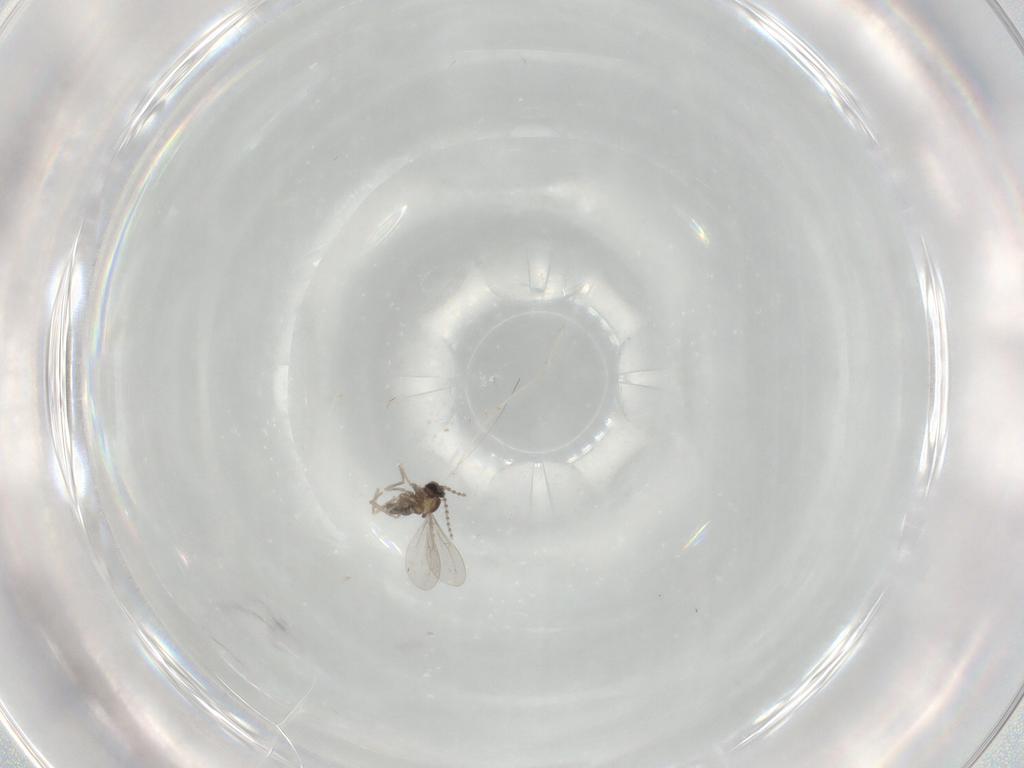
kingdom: Animalia
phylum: Arthropoda
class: Insecta
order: Diptera
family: Cecidomyiidae
